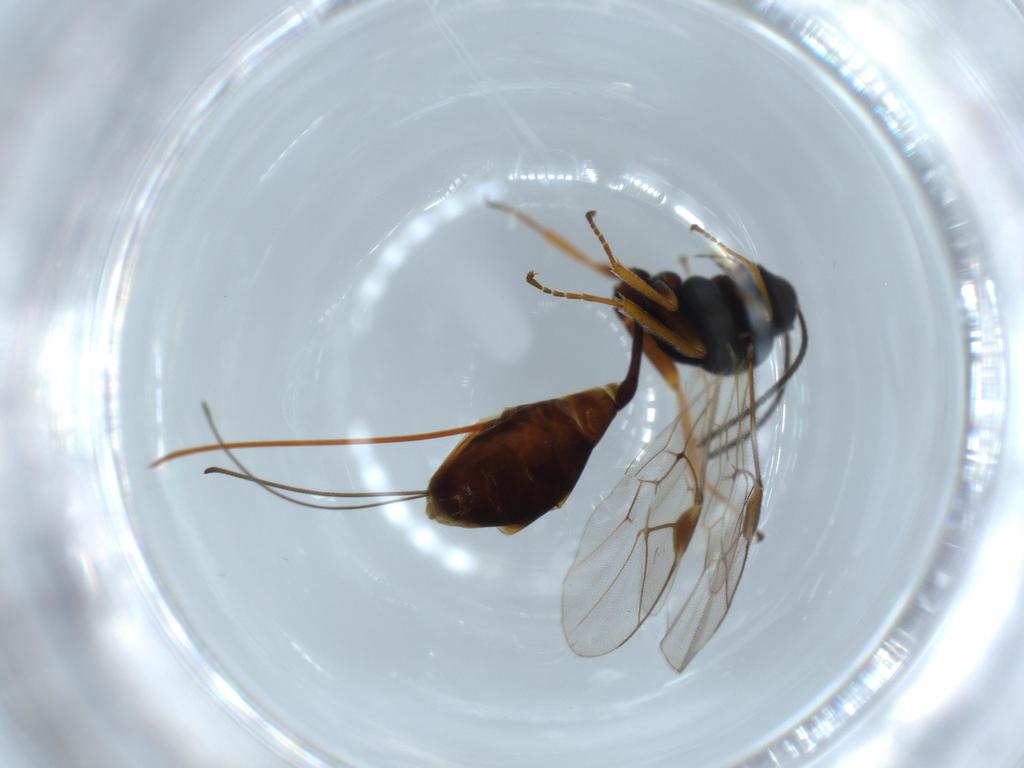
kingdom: Animalia
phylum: Arthropoda
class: Insecta
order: Hymenoptera
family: Ichneumonidae
